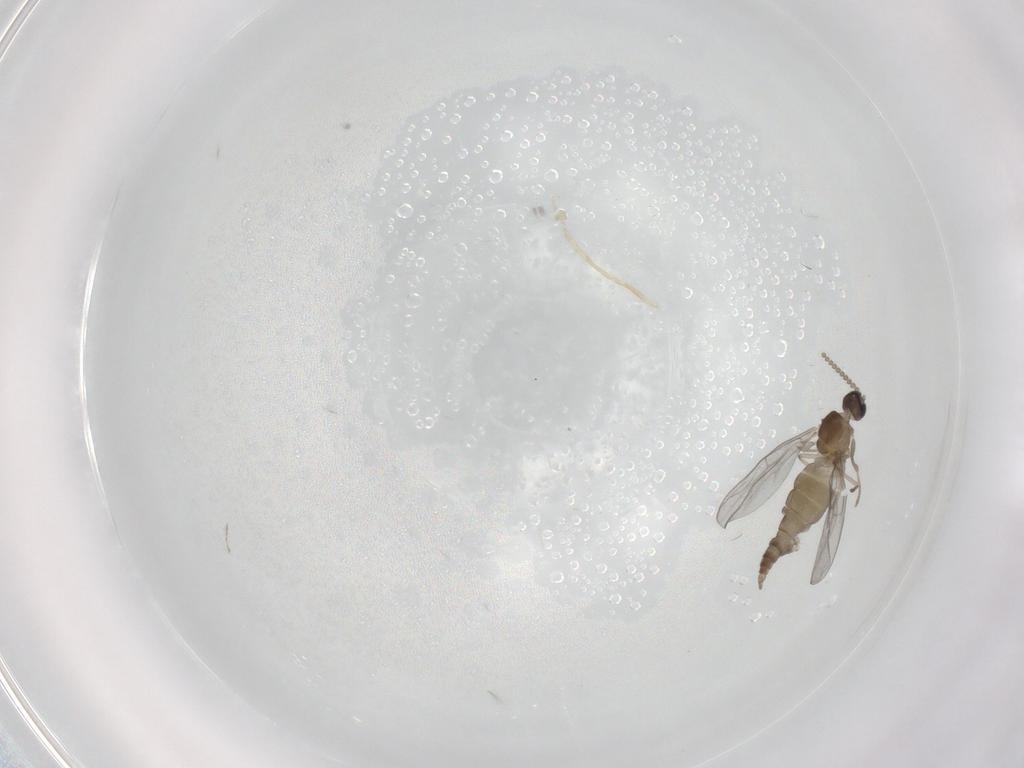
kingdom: Animalia
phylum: Arthropoda
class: Insecta
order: Diptera
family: Cecidomyiidae
